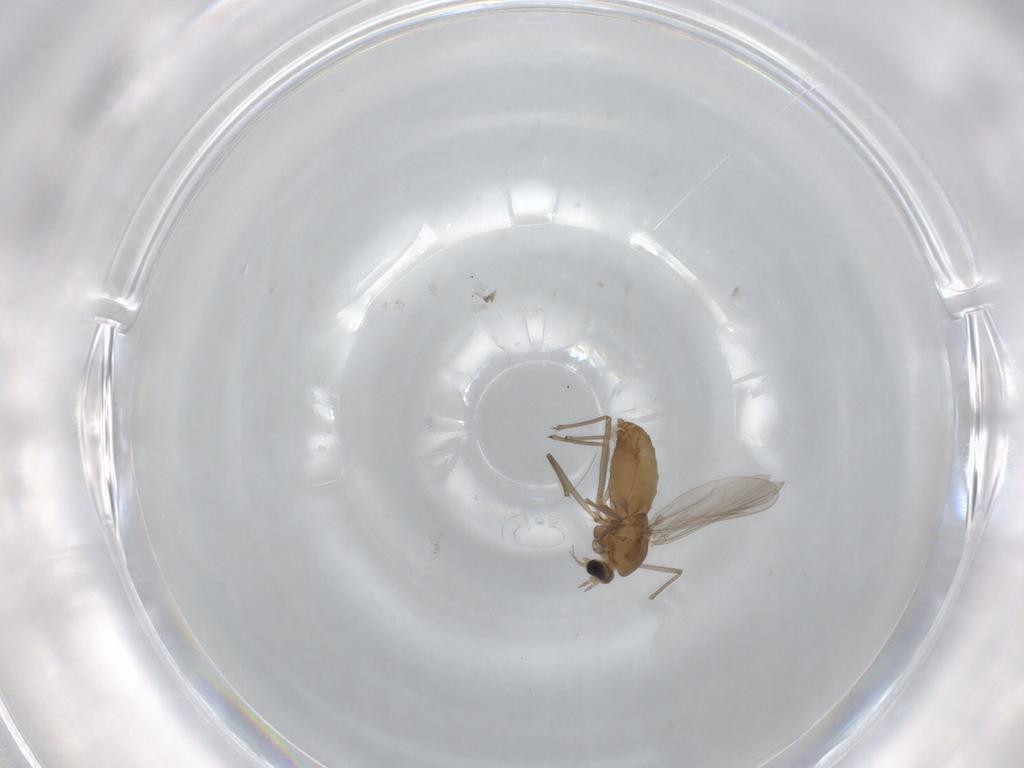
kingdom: Animalia
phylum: Arthropoda
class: Insecta
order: Diptera
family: Chironomidae
